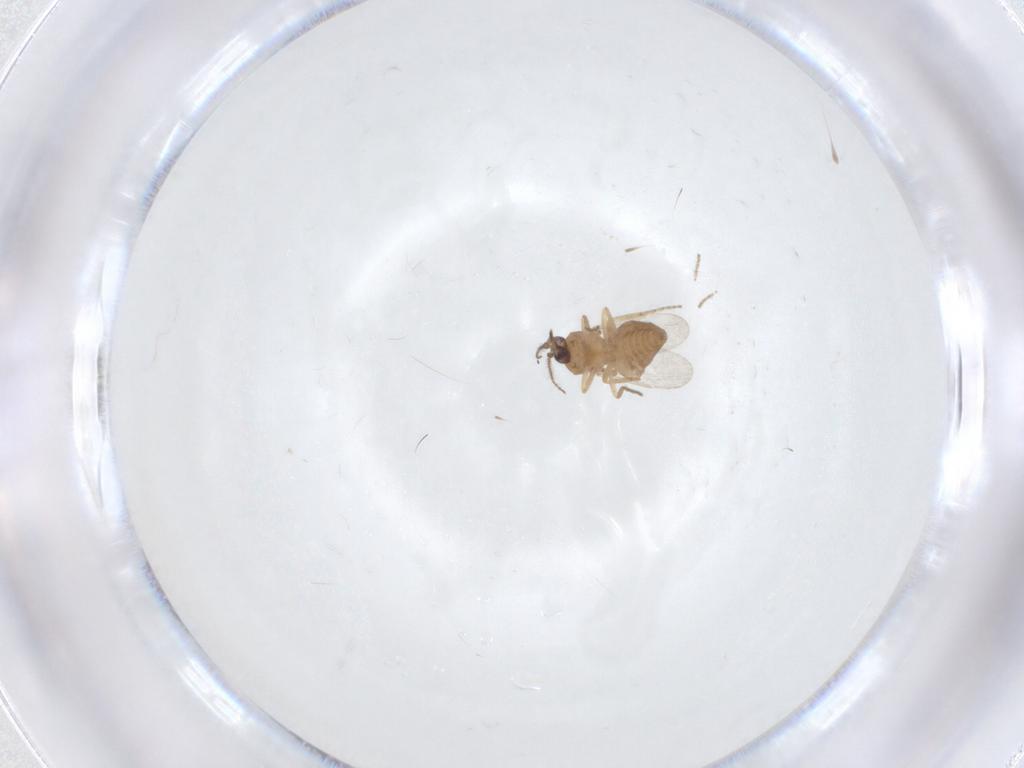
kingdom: Animalia
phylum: Arthropoda
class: Insecta
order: Diptera
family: Ceratopogonidae
